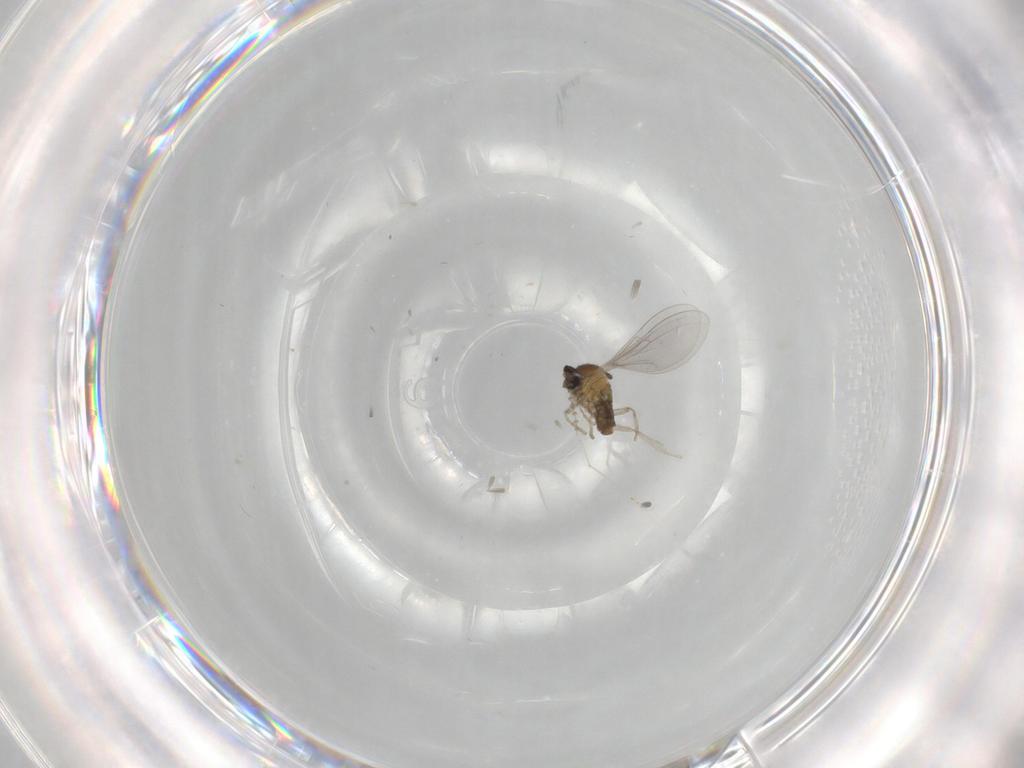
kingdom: Animalia
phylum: Arthropoda
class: Insecta
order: Diptera
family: Cecidomyiidae
